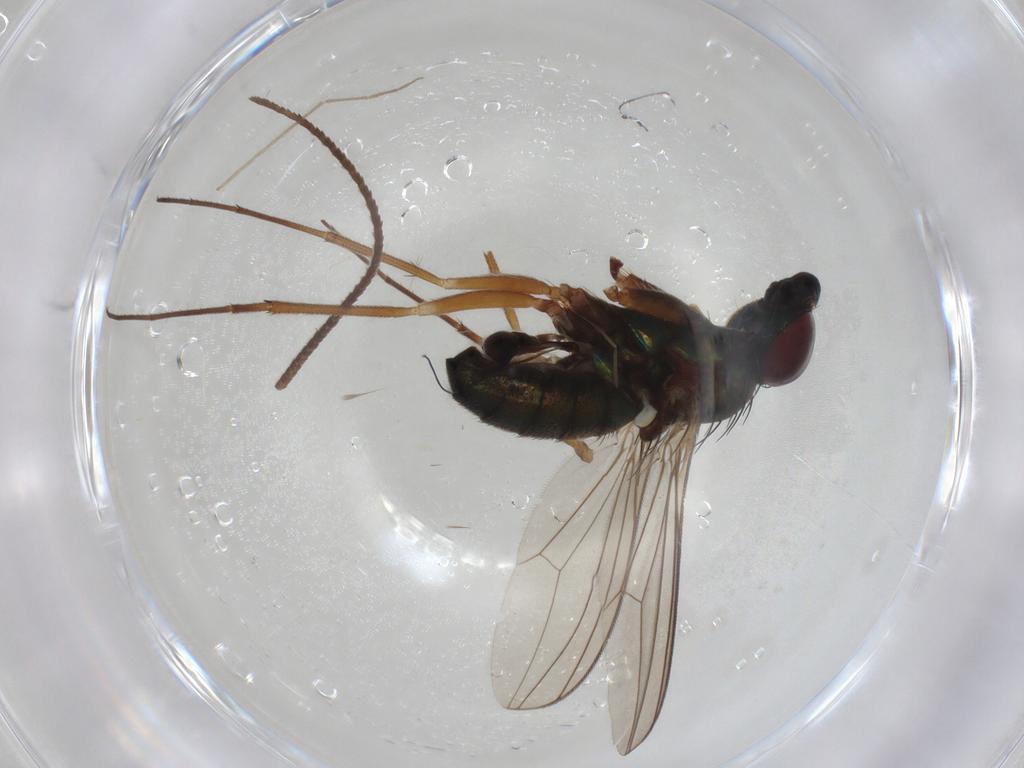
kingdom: Animalia
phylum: Arthropoda
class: Insecta
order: Diptera
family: Dolichopodidae
